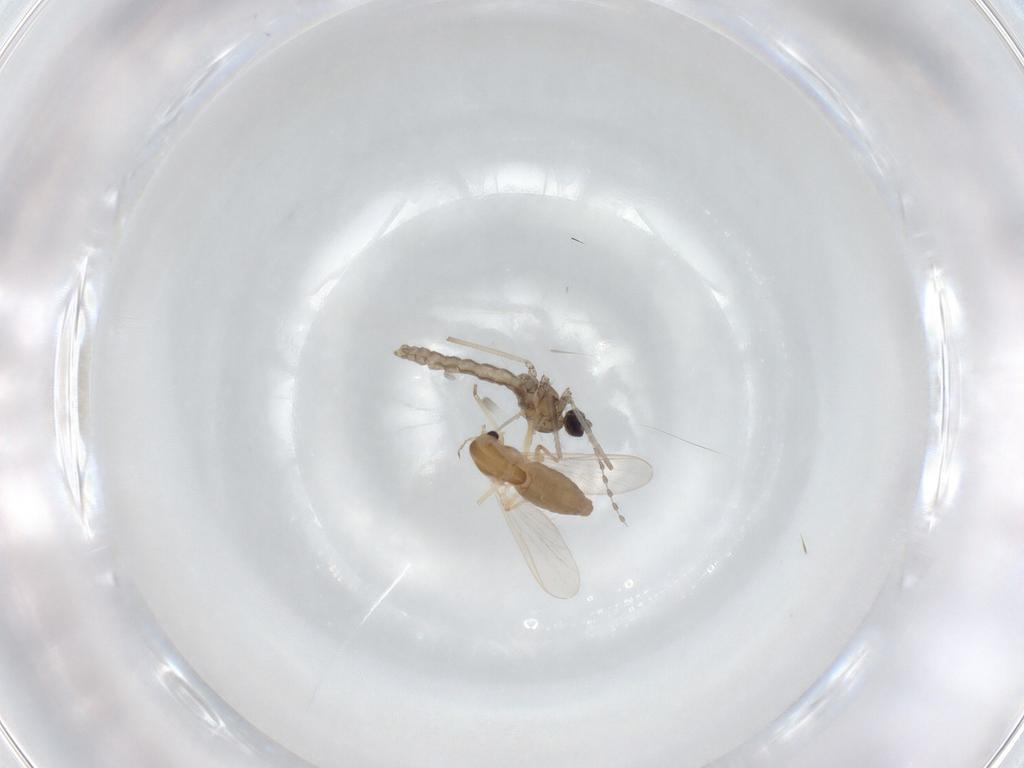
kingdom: Animalia
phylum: Arthropoda
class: Insecta
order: Diptera
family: Cecidomyiidae
